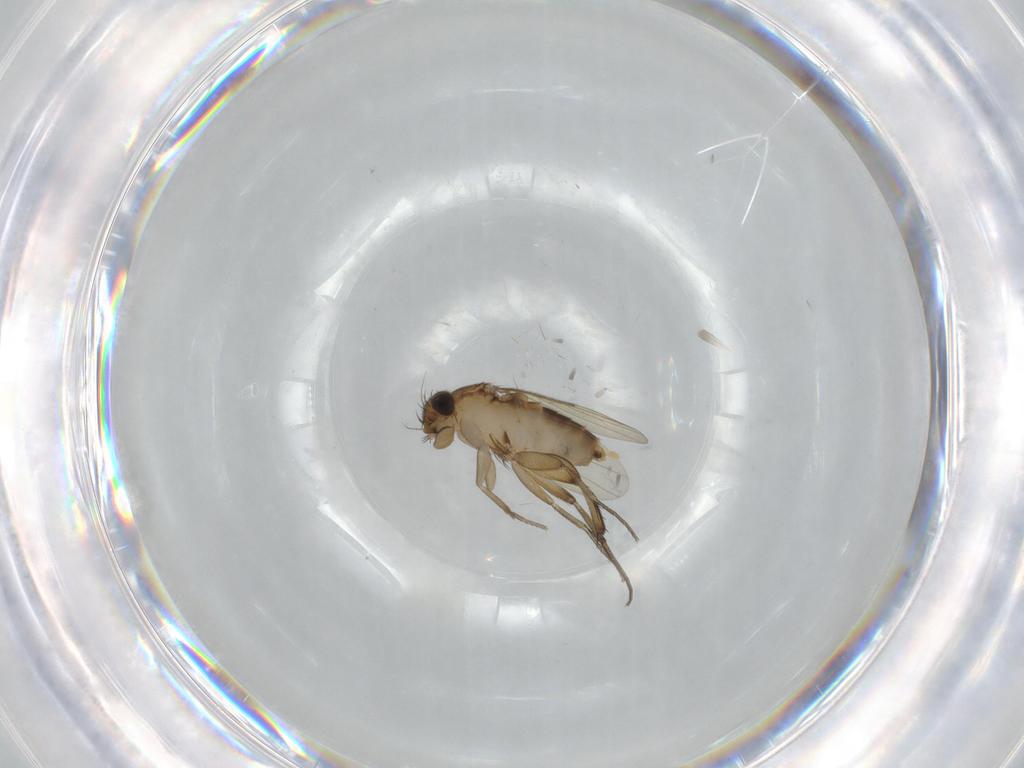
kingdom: Animalia
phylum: Arthropoda
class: Insecta
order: Diptera
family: Phoridae
